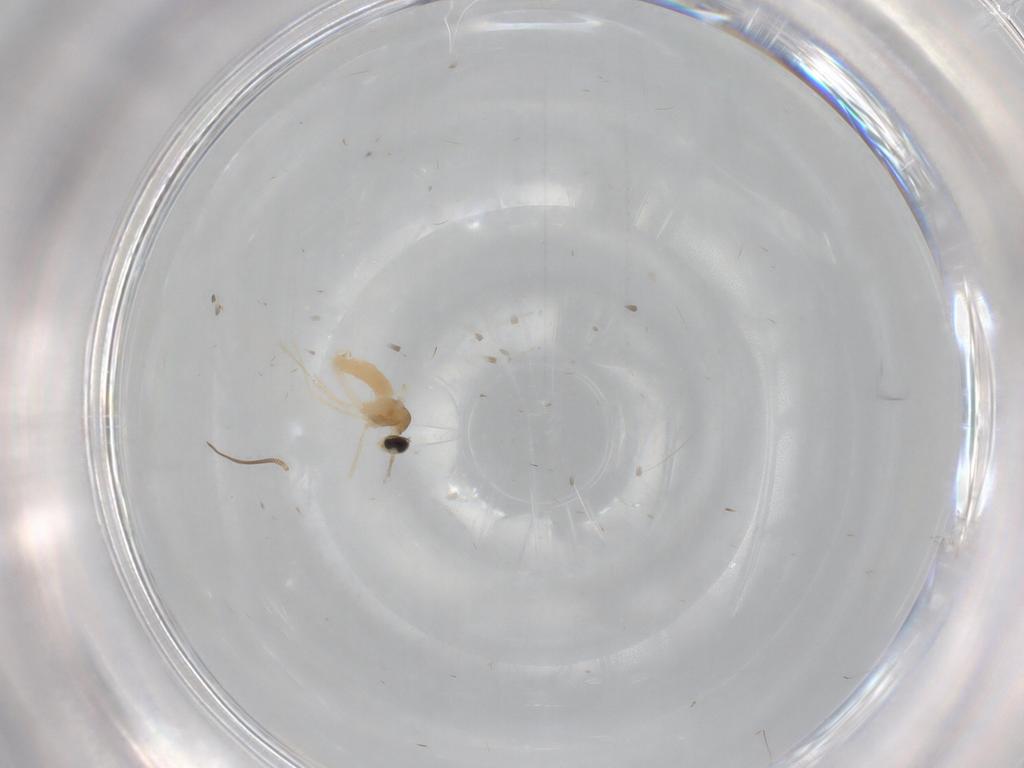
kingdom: Animalia
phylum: Arthropoda
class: Insecta
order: Diptera
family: Cecidomyiidae
